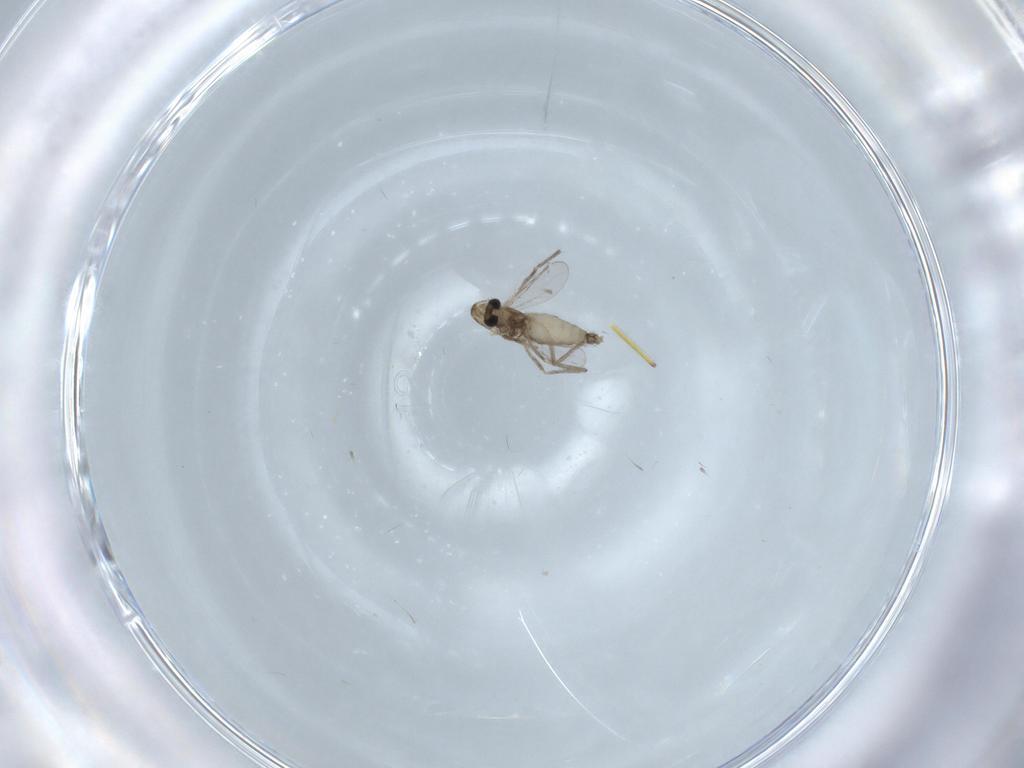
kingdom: Animalia
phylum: Arthropoda
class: Insecta
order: Diptera
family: Chironomidae
